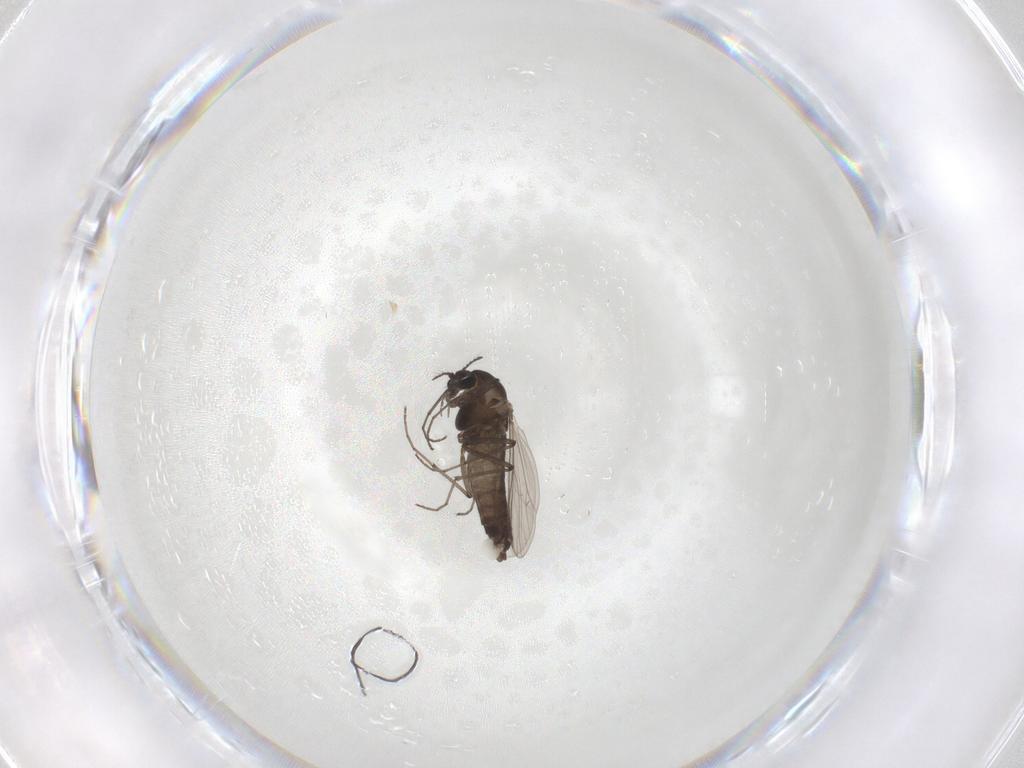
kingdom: Animalia
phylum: Arthropoda
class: Insecta
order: Diptera
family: Chironomidae
